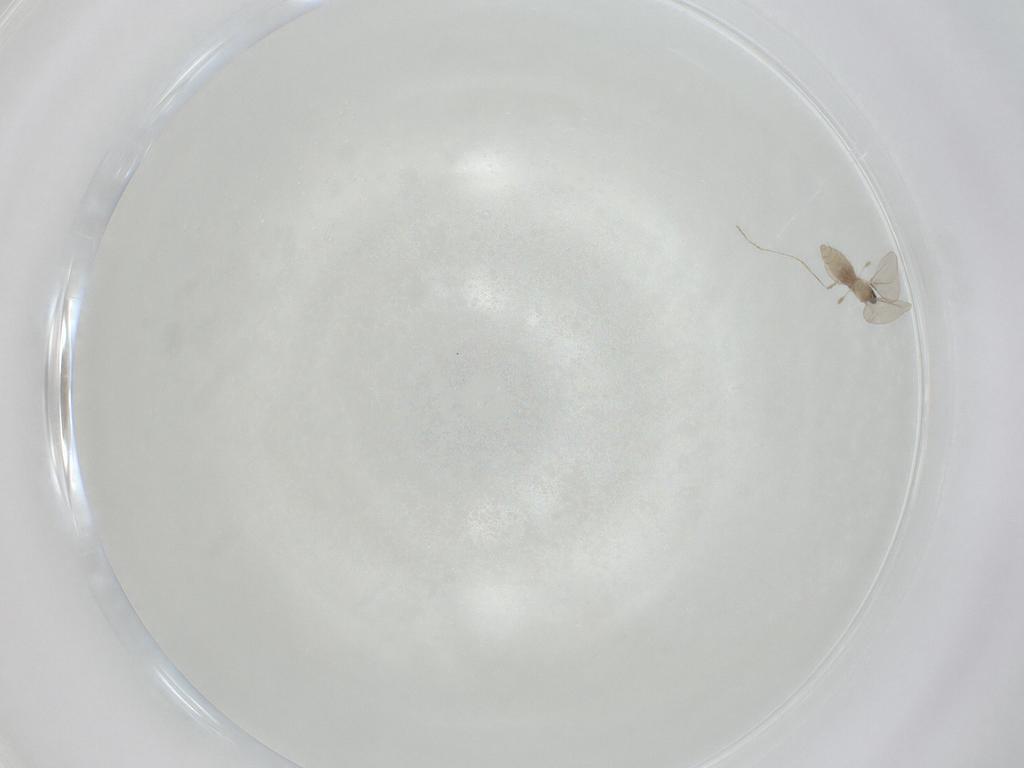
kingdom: Animalia
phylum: Arthropoda
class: Insecta
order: Diptera
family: Cecidomyiidae
